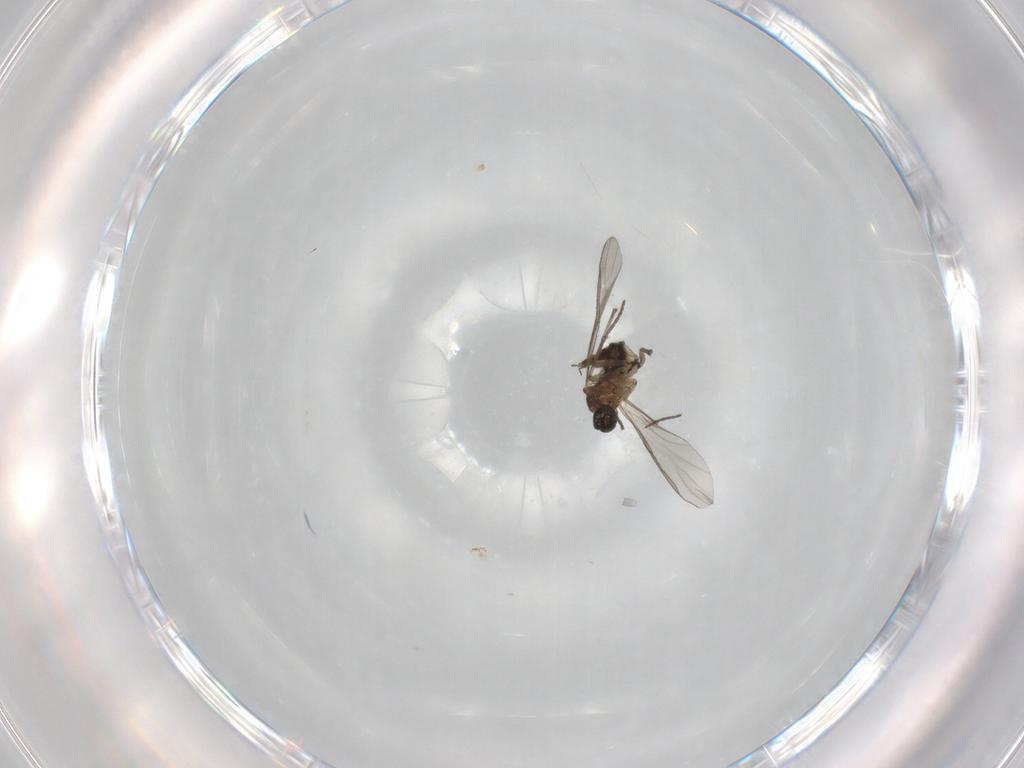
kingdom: Animalia
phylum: Arthropoda
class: Insecta
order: Diptera
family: Chironomidae
